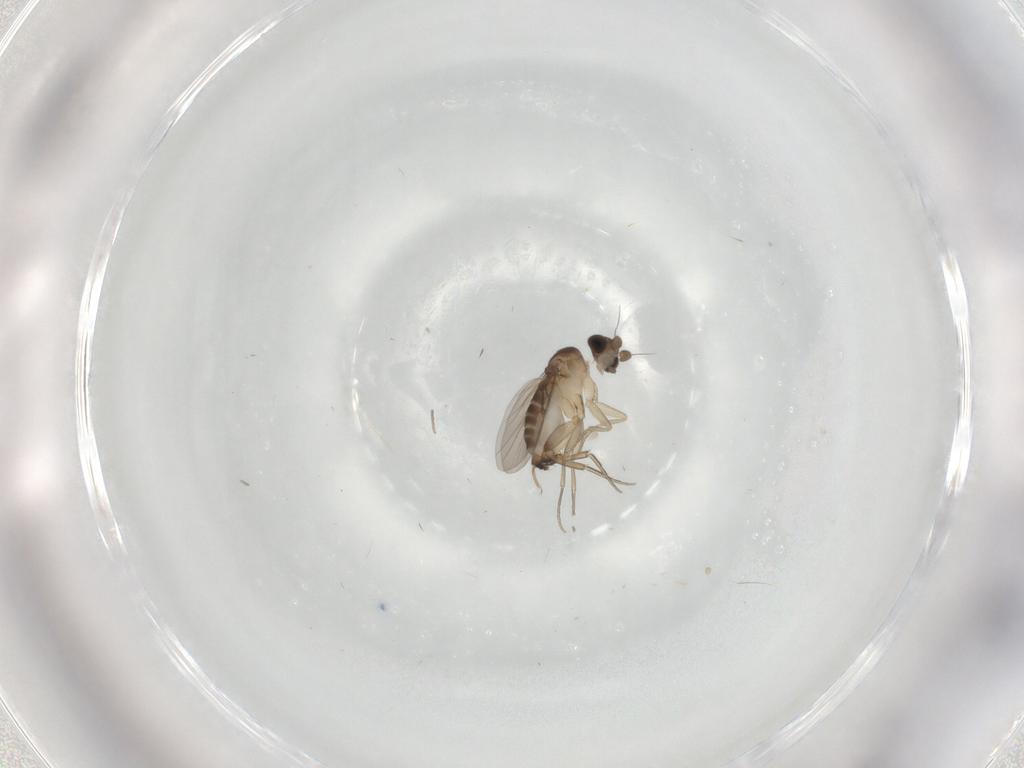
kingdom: Animalia
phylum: Arthropoda
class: Insecta
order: Diptera
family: Phoridae
